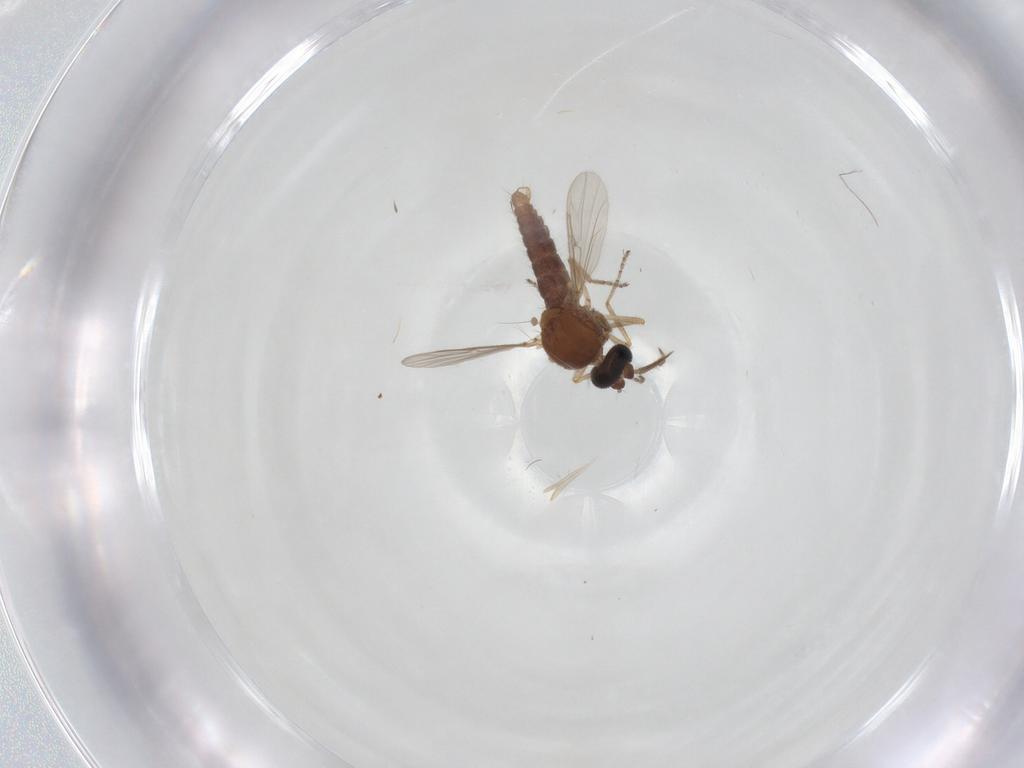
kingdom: Animalia
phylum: Arthropoda
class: Insecta
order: Diptera
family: Ceratopogonidae
